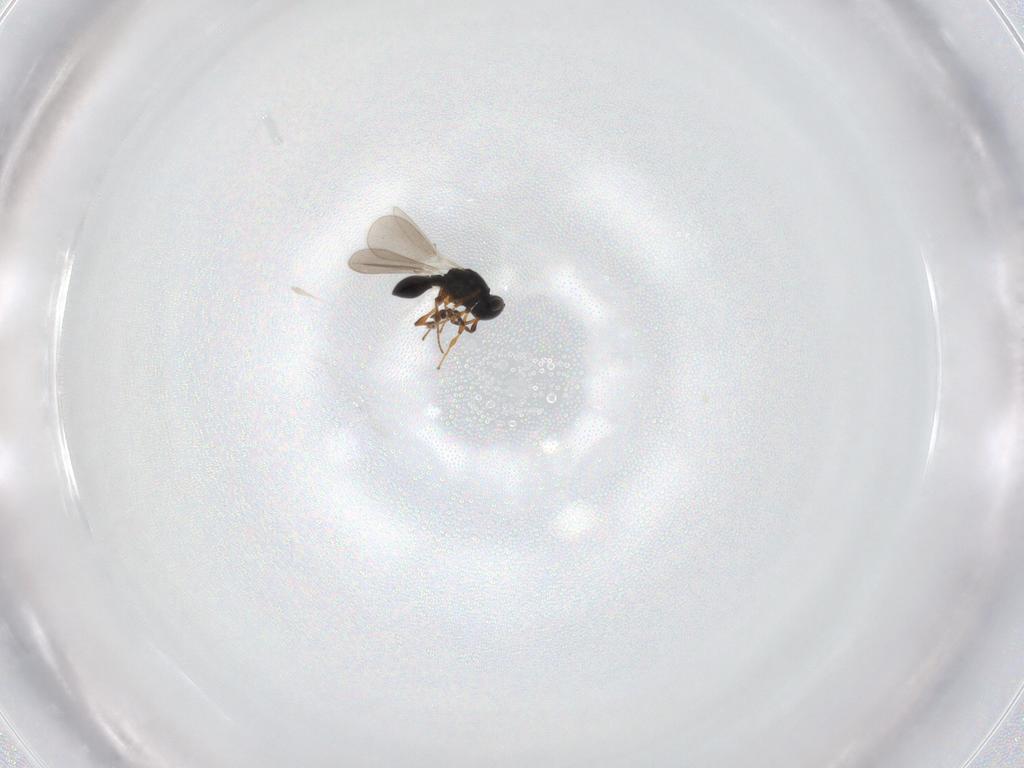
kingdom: Animalia
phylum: Arthropoda
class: Insecta
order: Hymenoptera
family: Platygastridae
